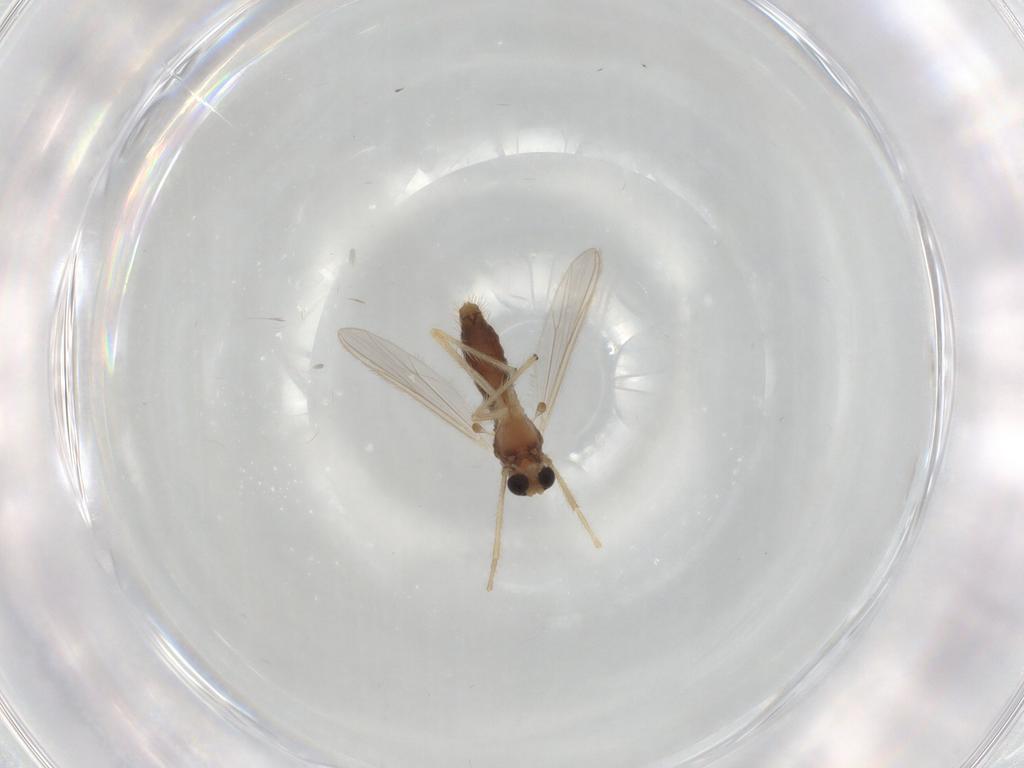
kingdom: Animalia
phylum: Arthropoda
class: Insecta
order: Diptera
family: Chironomidae
